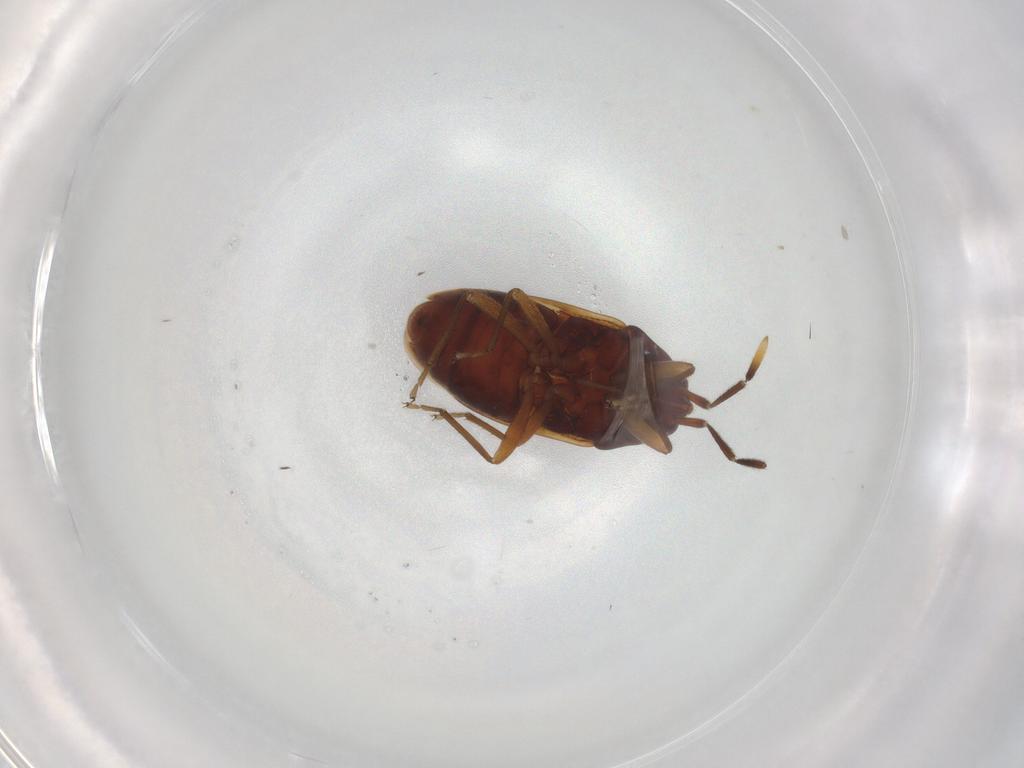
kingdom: Animalia
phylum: Arthropoda
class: Insecta
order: Hemiptera
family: Rhyparochromidae
